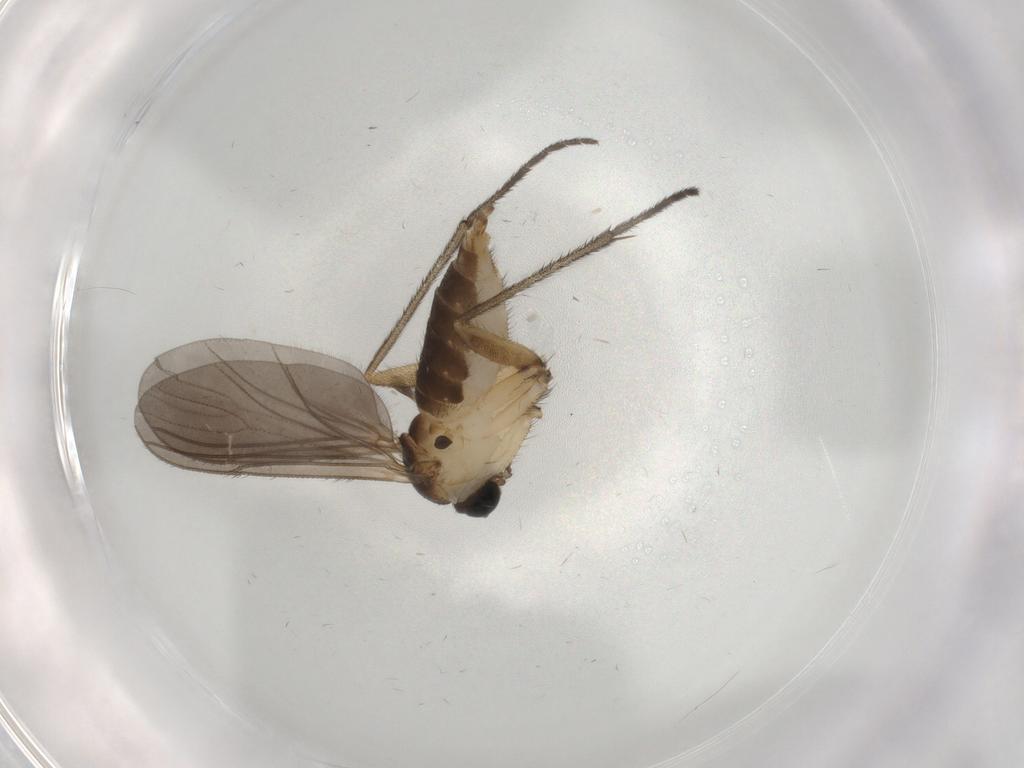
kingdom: Animalia
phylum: Arthropoda
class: Insecta
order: Diptera
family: Sciaridae
